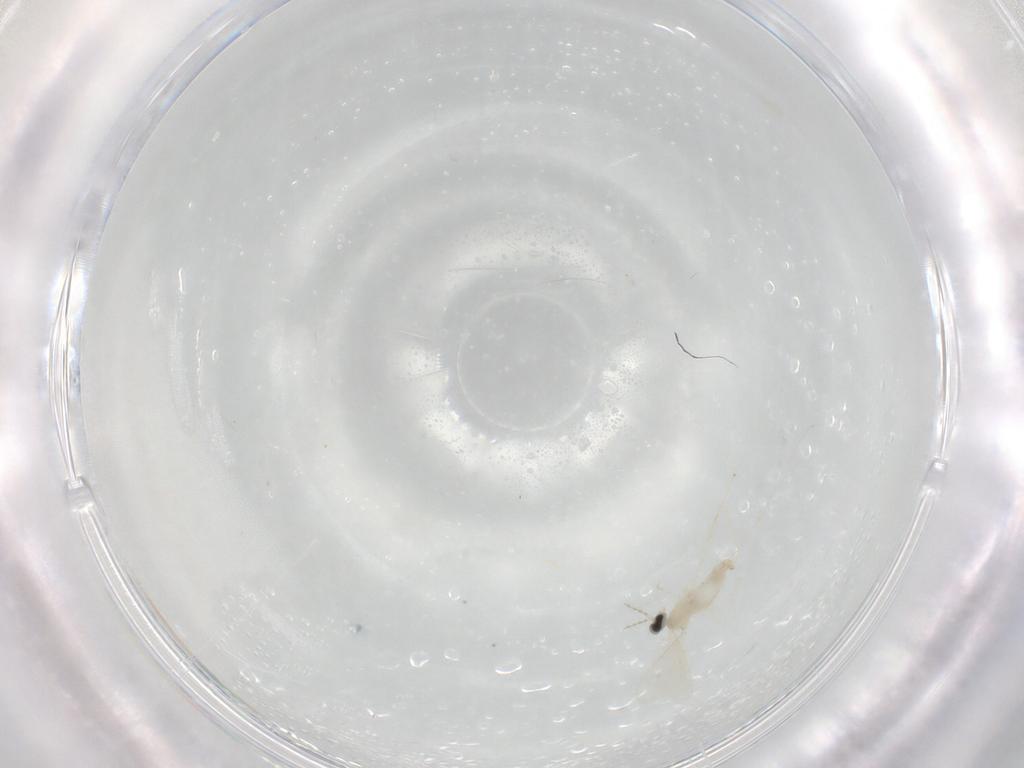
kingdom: Animalia
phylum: Arthropoda
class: Insecta
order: Diptera
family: Cecidomyiidae
